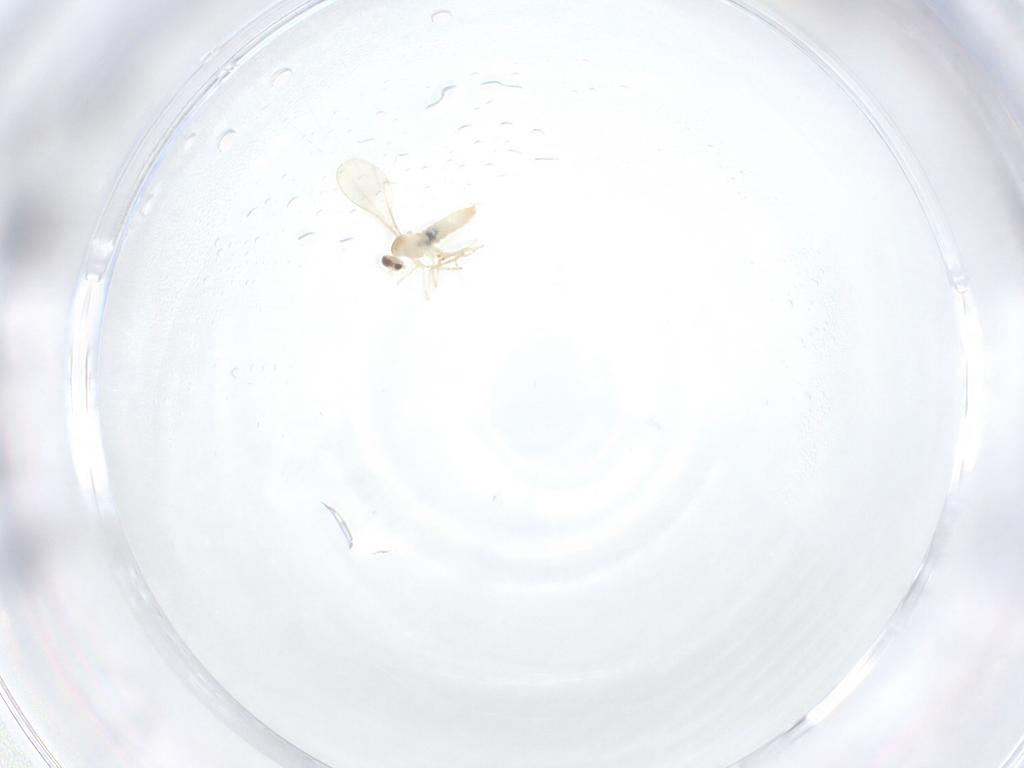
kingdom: Animalia
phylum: Arthropoda
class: Insecta
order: Diptera
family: Cecidomyiidae
